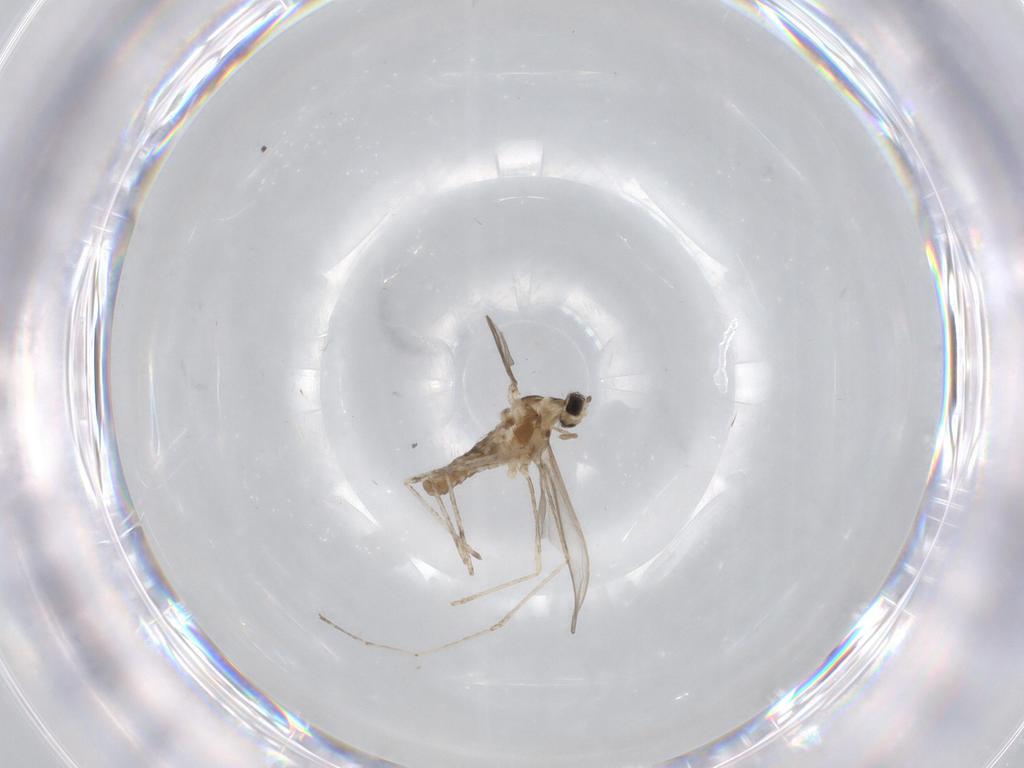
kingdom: Animalia
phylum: Arthropoda
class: Insecta
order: Diptera
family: Cecidomyiidae
